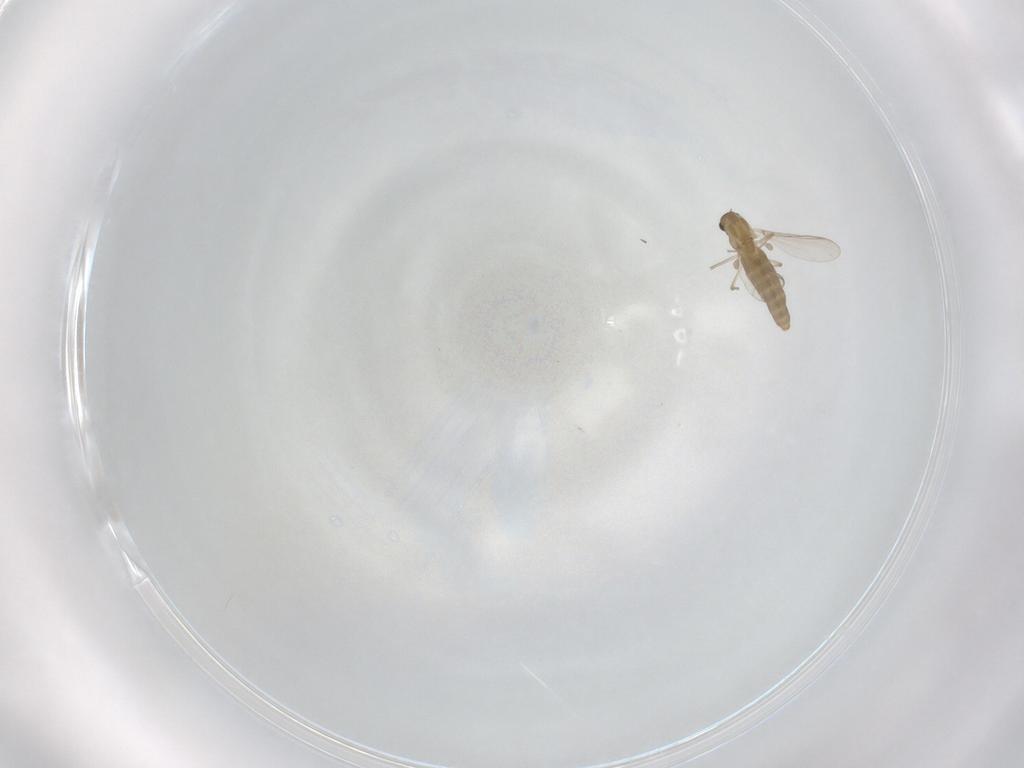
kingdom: Animalia
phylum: Arthropoda
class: Insecta
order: Diptera
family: Chironomidae
